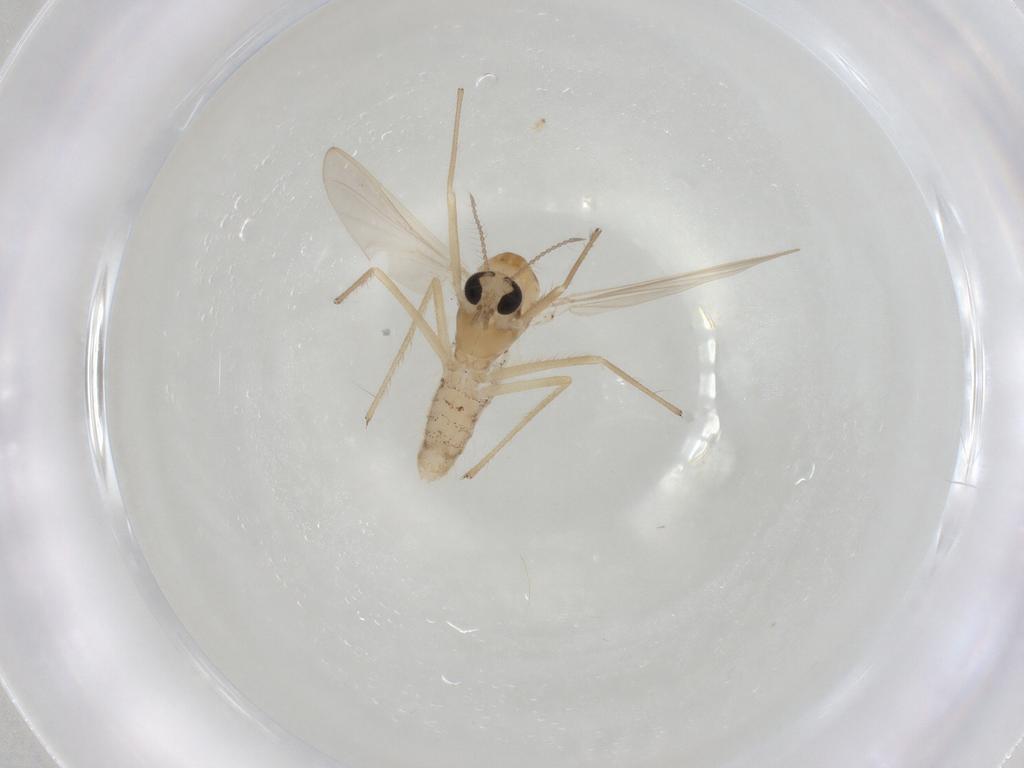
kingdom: Animalia
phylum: Arthropoda
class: Insecta
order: Diptera
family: Chironomidae
